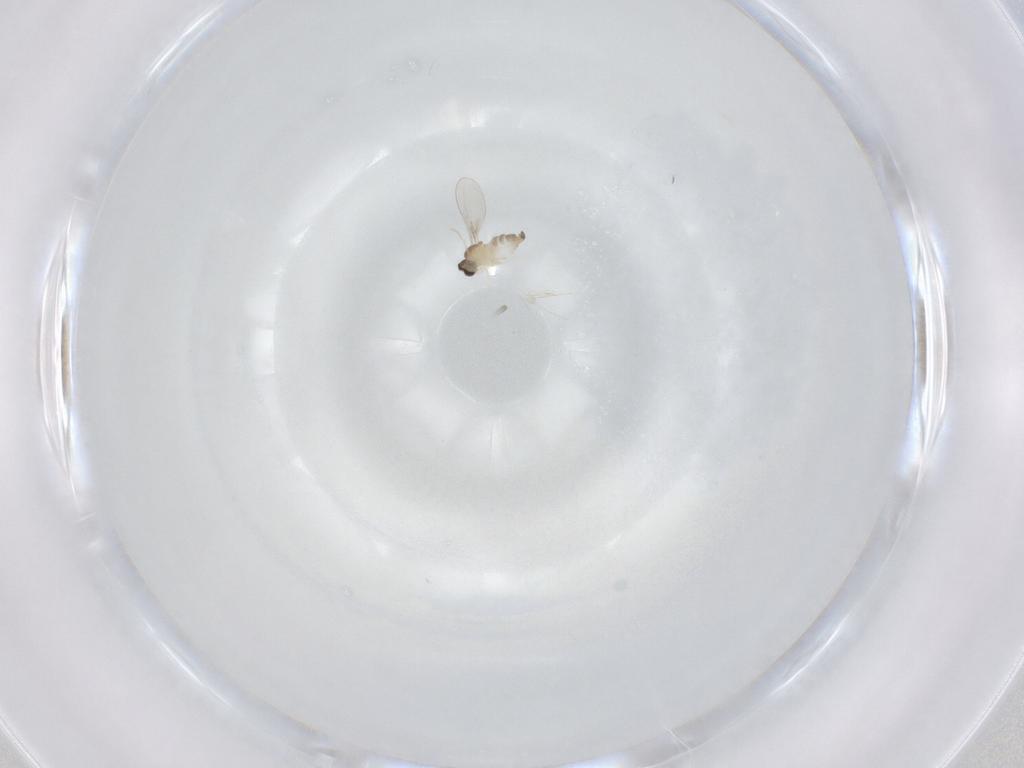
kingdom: Animalia
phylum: Arthropoda
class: Insecta
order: Diptera
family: Cecidomyiidae
